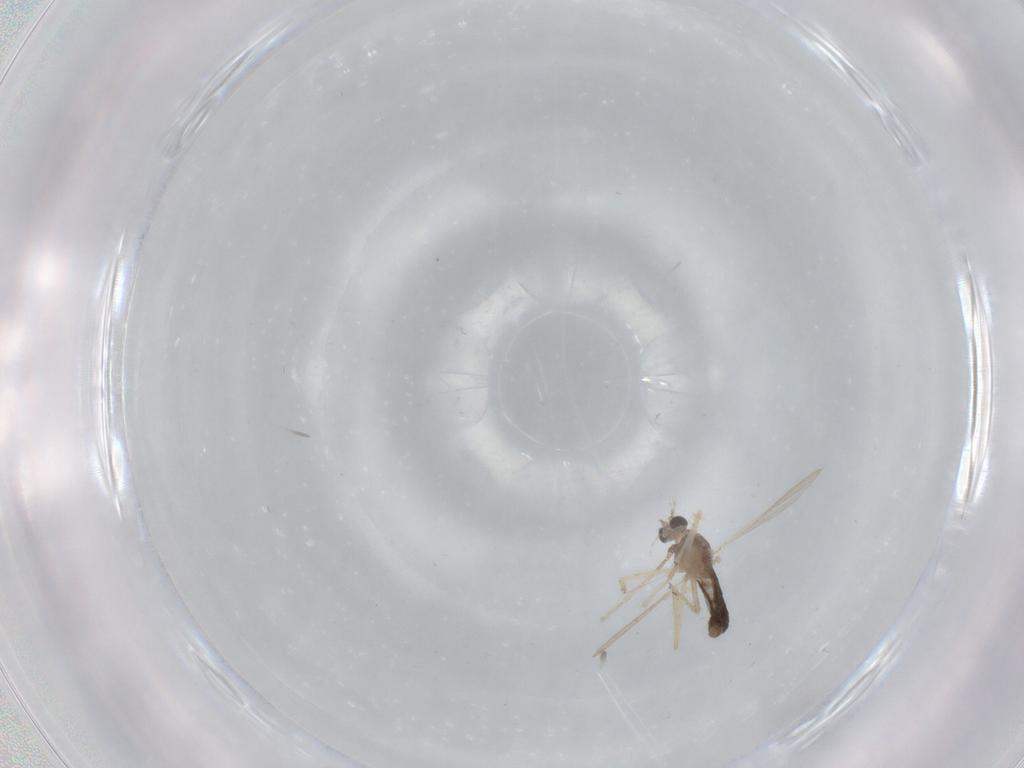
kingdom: Animalia
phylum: Arthropoda
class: Insecta
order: Diptera
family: Chironomidae
